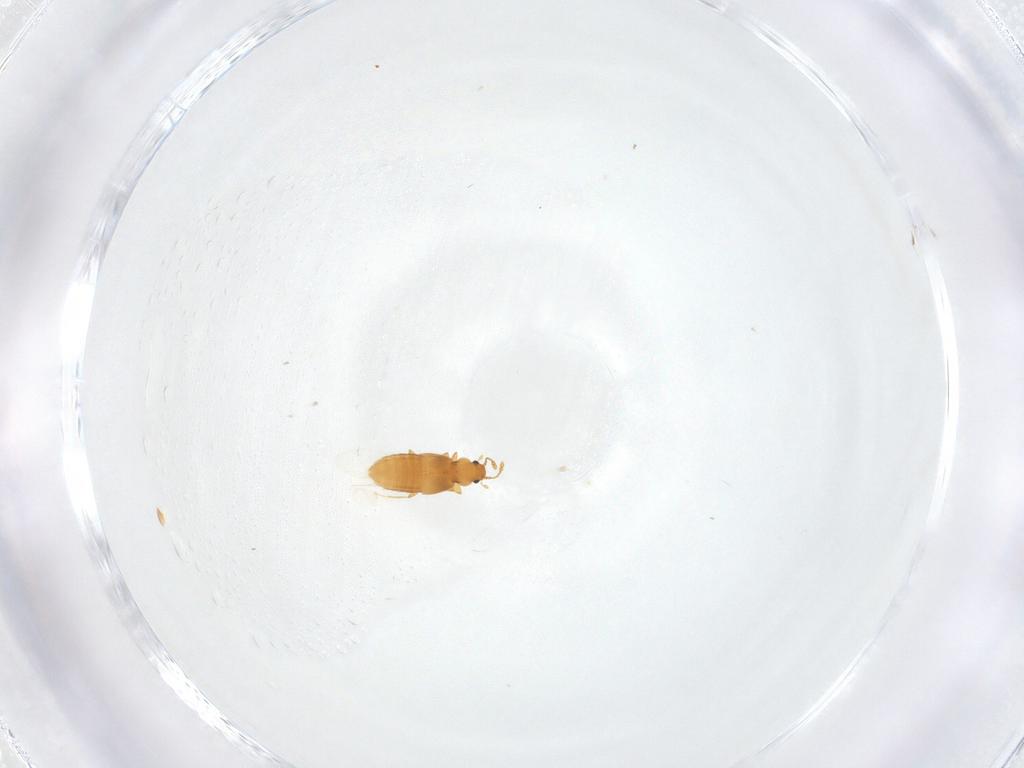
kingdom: Animalia
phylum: Arthropoda
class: Insecta
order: Coleoptera
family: Staphylinidae
